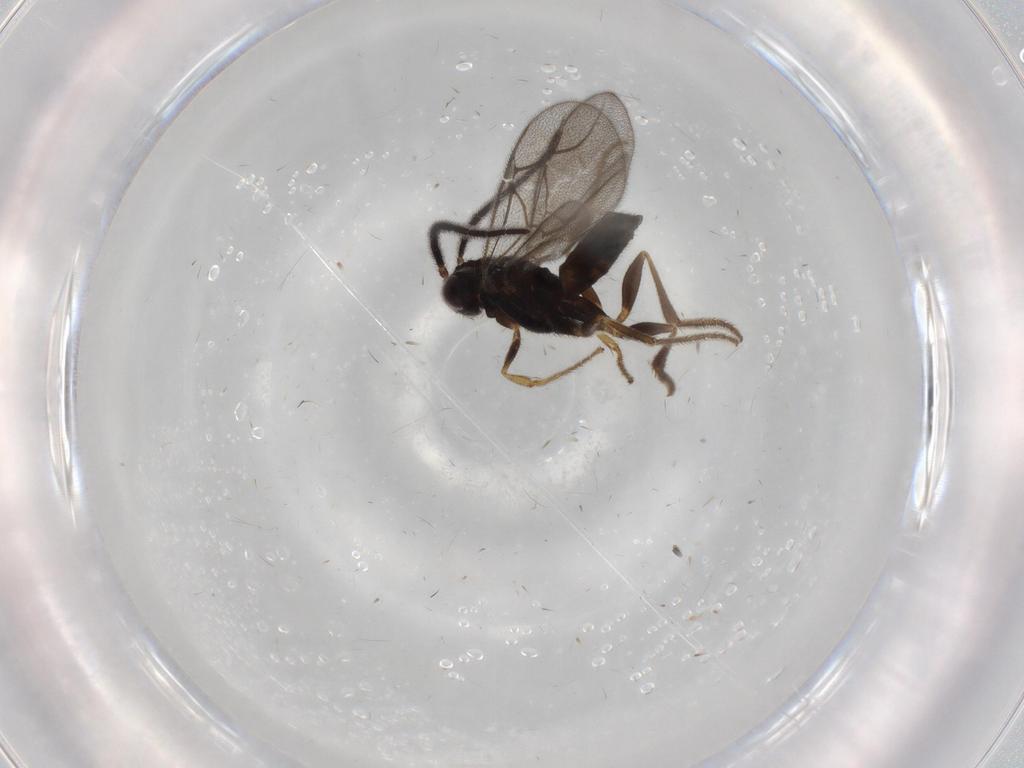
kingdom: Animalia
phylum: Arthropoda
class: Insecta
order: Hymenoptera
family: Dryinidae
